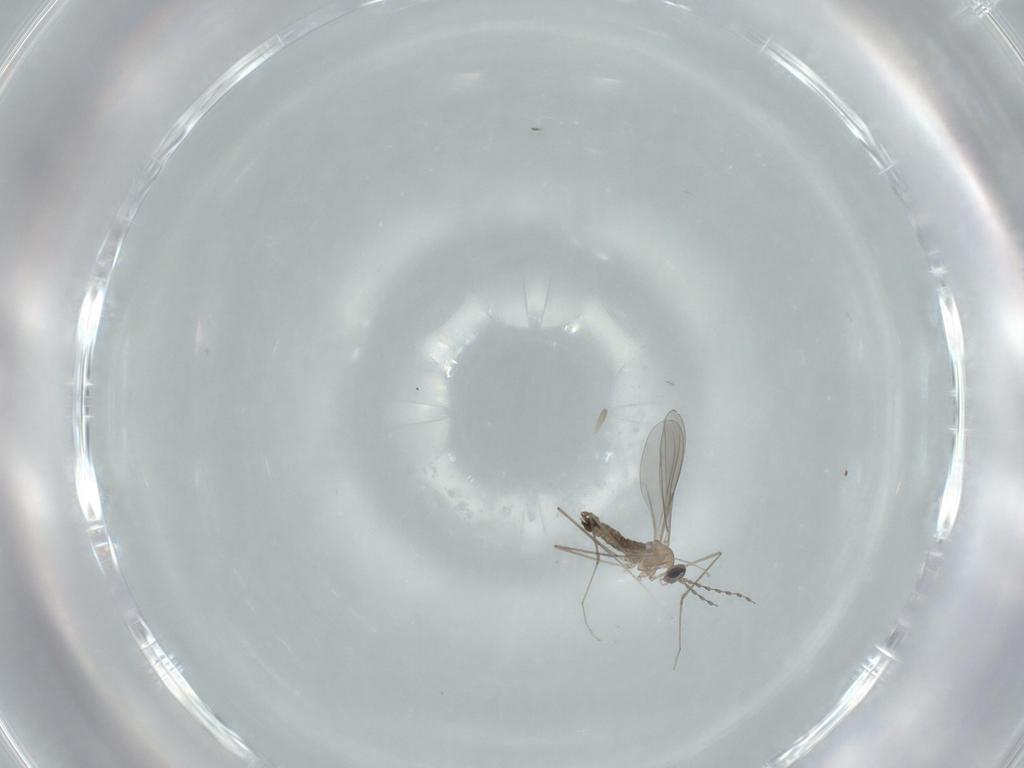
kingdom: Animalia
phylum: Arthropoda
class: Insecta
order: Diptera
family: Cecidomyiidae
